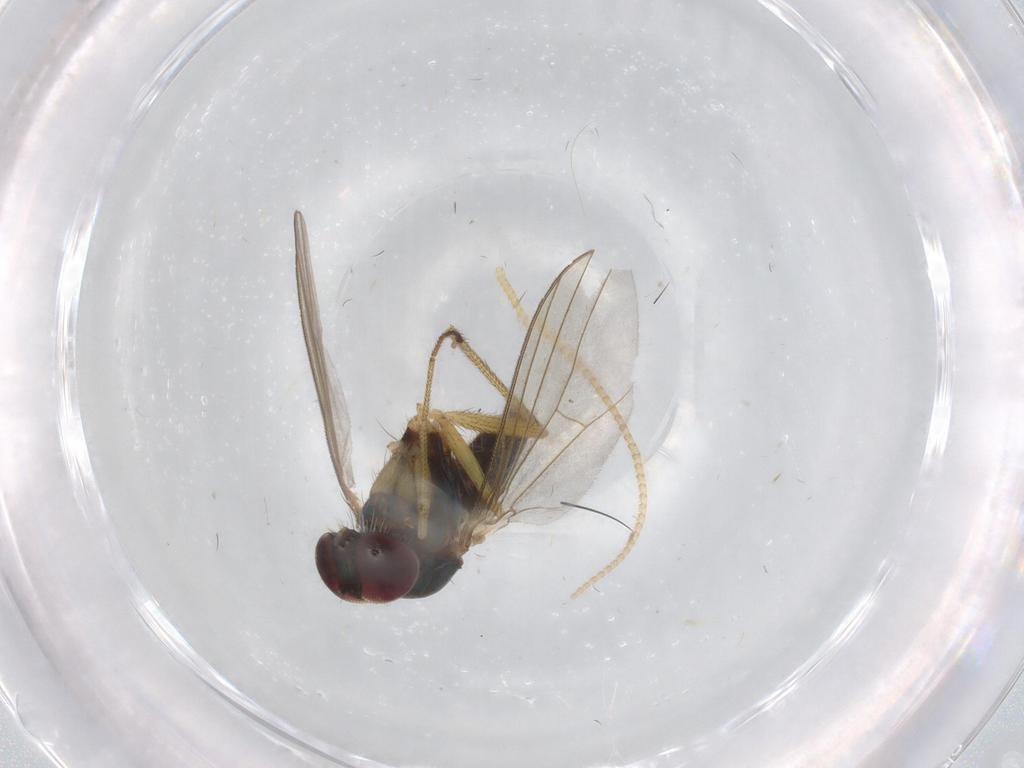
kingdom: Animalia
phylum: Arthropoda
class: Insecta
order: Diptera
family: Dolichopodidae
